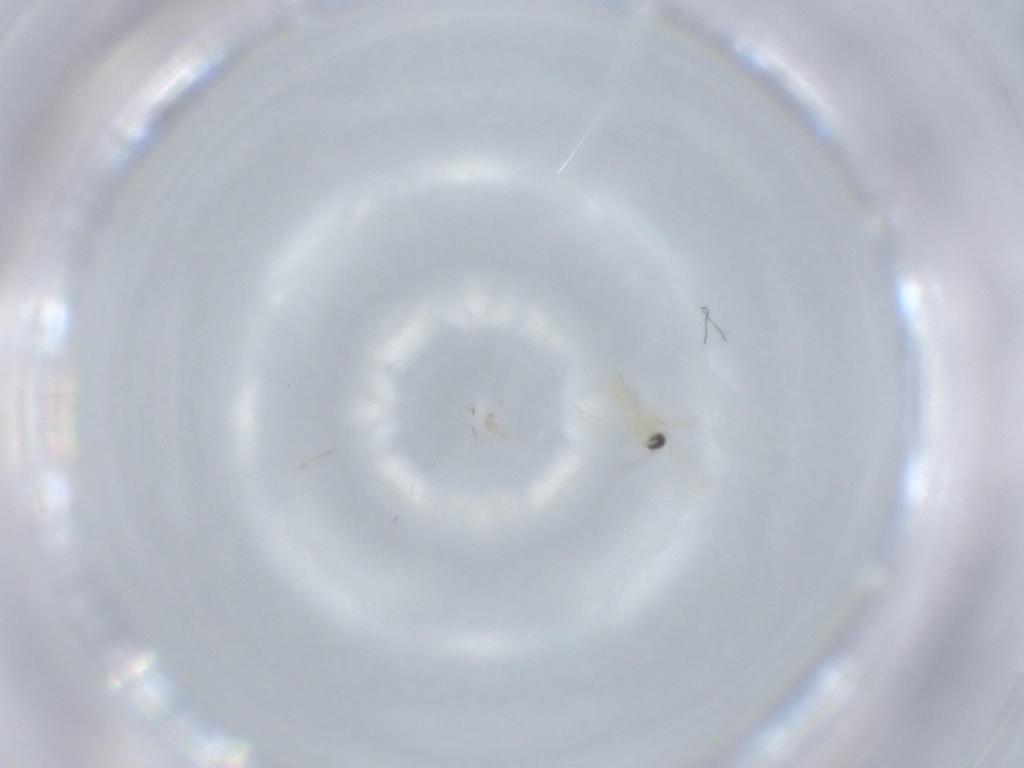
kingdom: Animalia
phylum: Arthropoda
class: Insecta
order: Diptera
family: Cecidomyiidae
